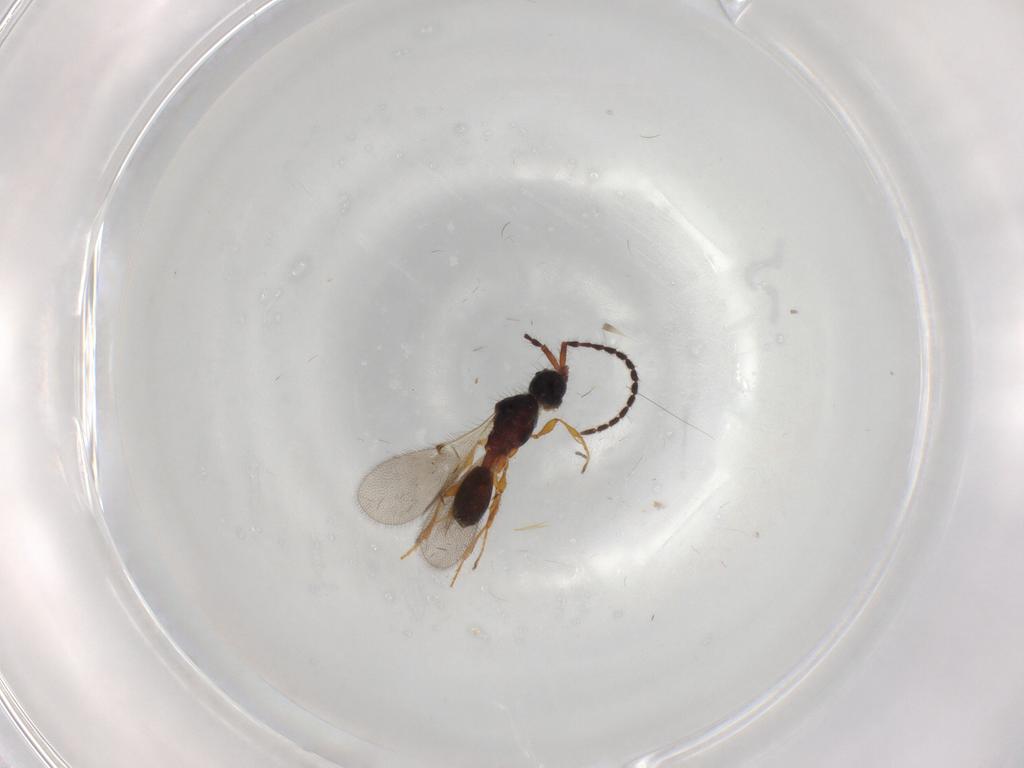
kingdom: Animalia
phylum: Arthropoda
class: Insecta
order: Hymenoptera
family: Diapriidae
